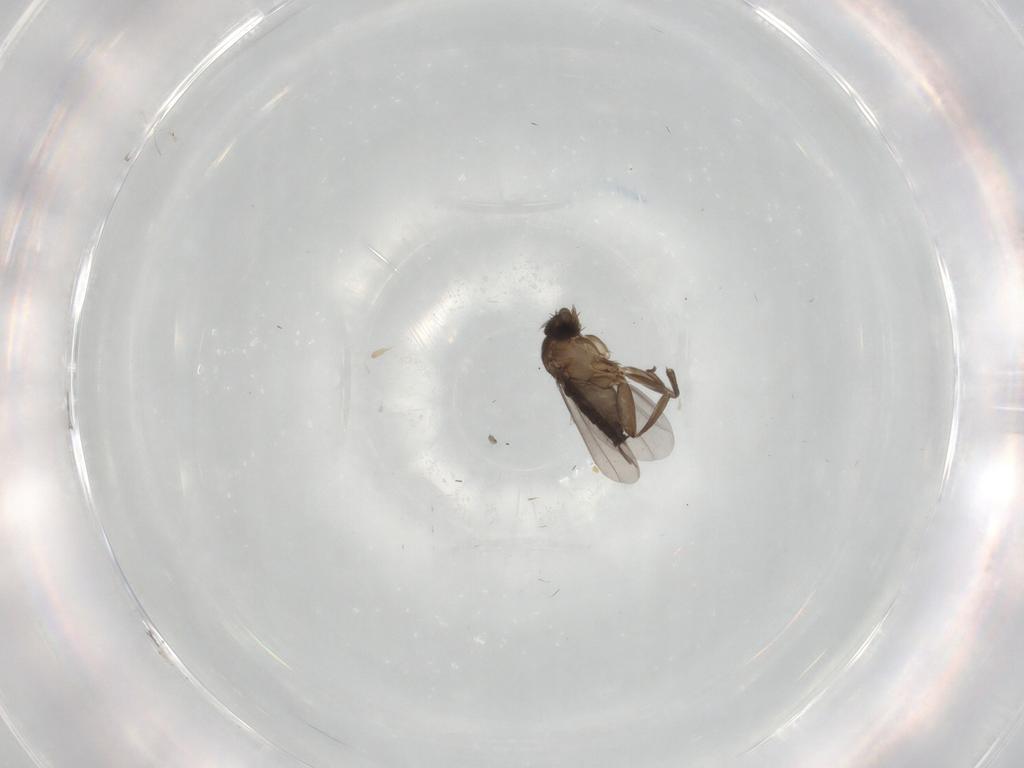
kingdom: Animalia
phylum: Arthropoda
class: Insecta
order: Diptera
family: Phoridae
